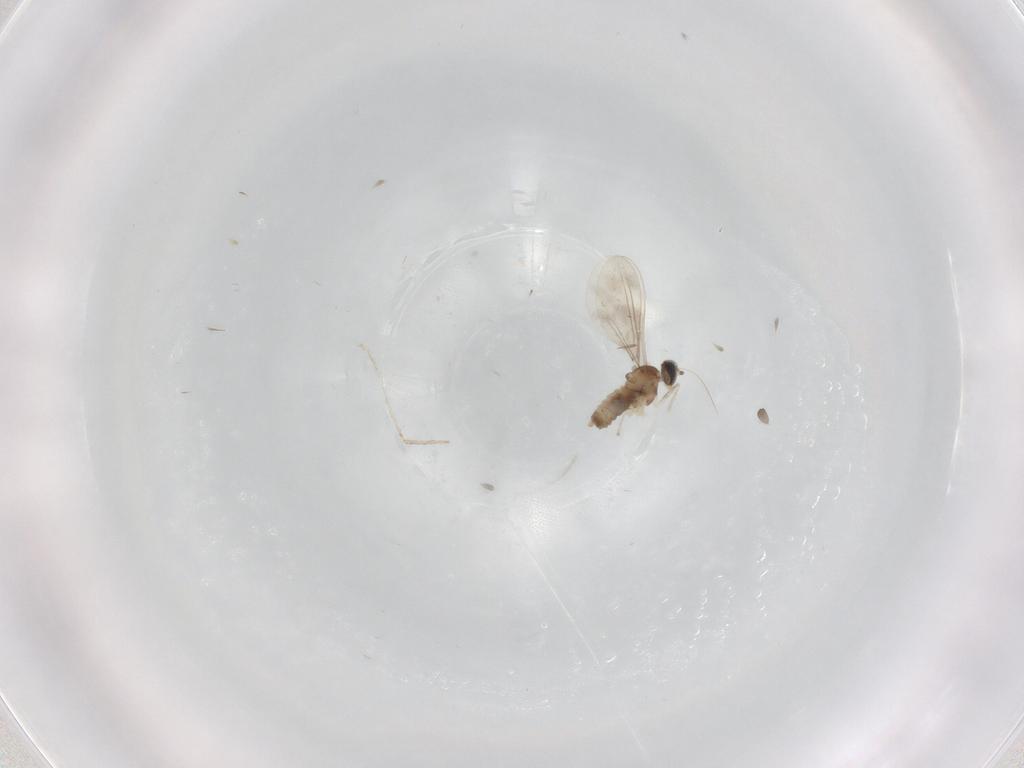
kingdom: Animalia
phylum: Arthropoda
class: Insecta
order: Diptera
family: Cecidomyiidae
